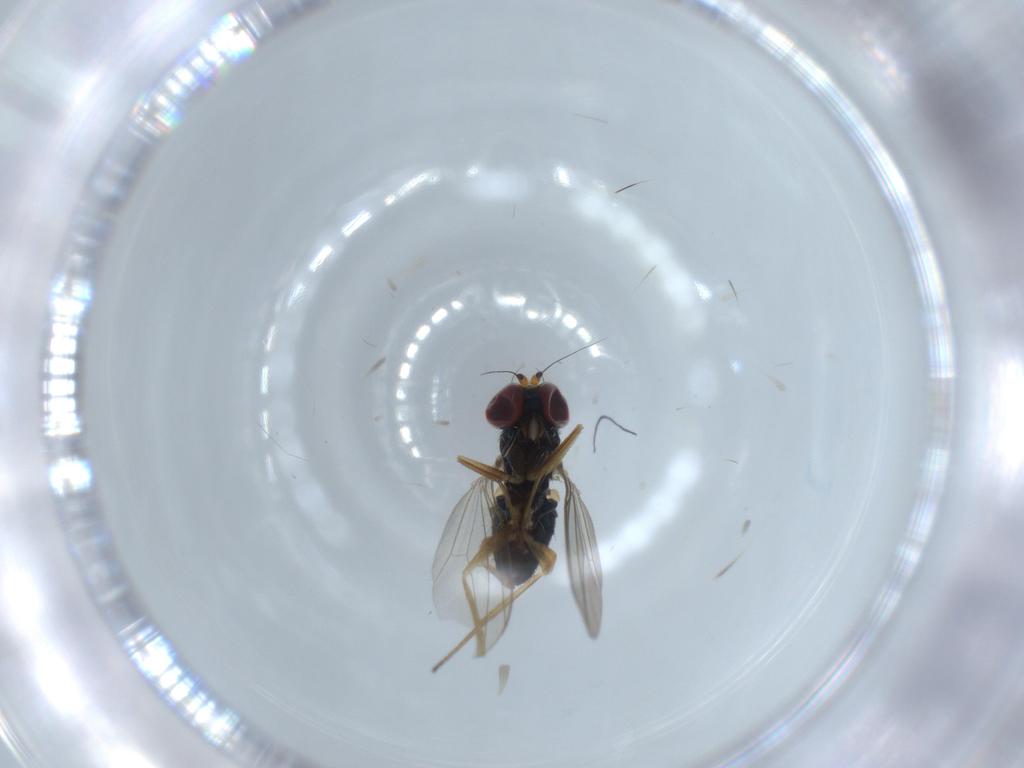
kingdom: Animalia
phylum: Arthropoda
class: Insecta
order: Diptera
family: Dolichopodidae
